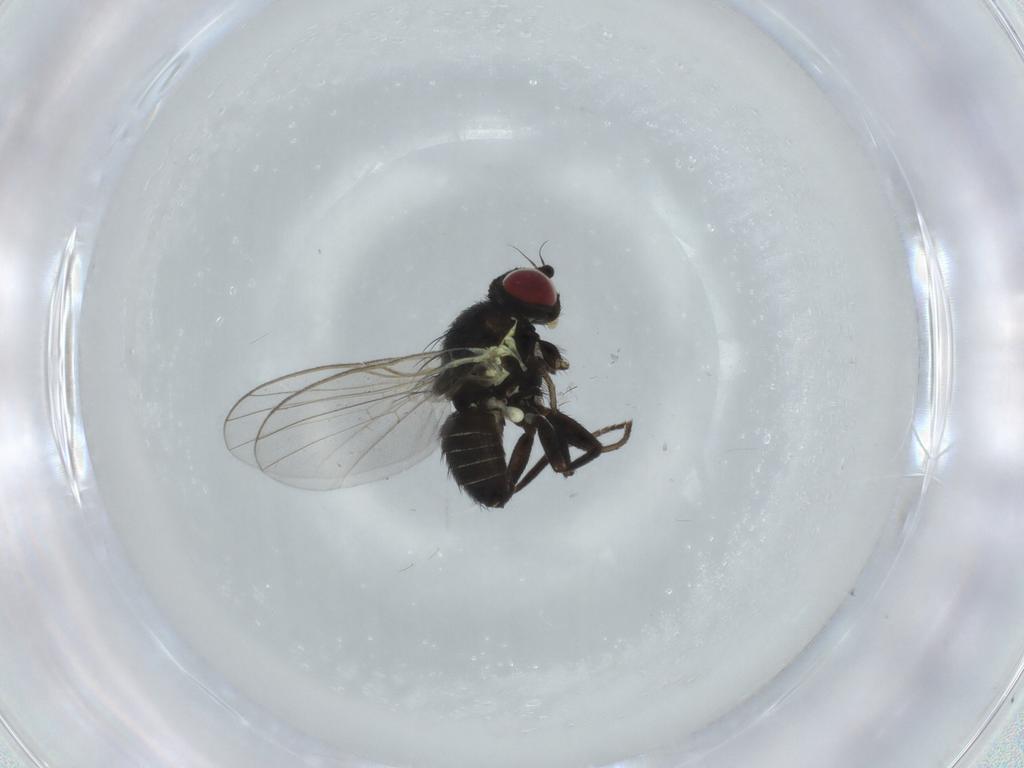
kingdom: Animalia
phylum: Arthropoda
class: Insecta
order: Diptera
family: Agromyzidae
